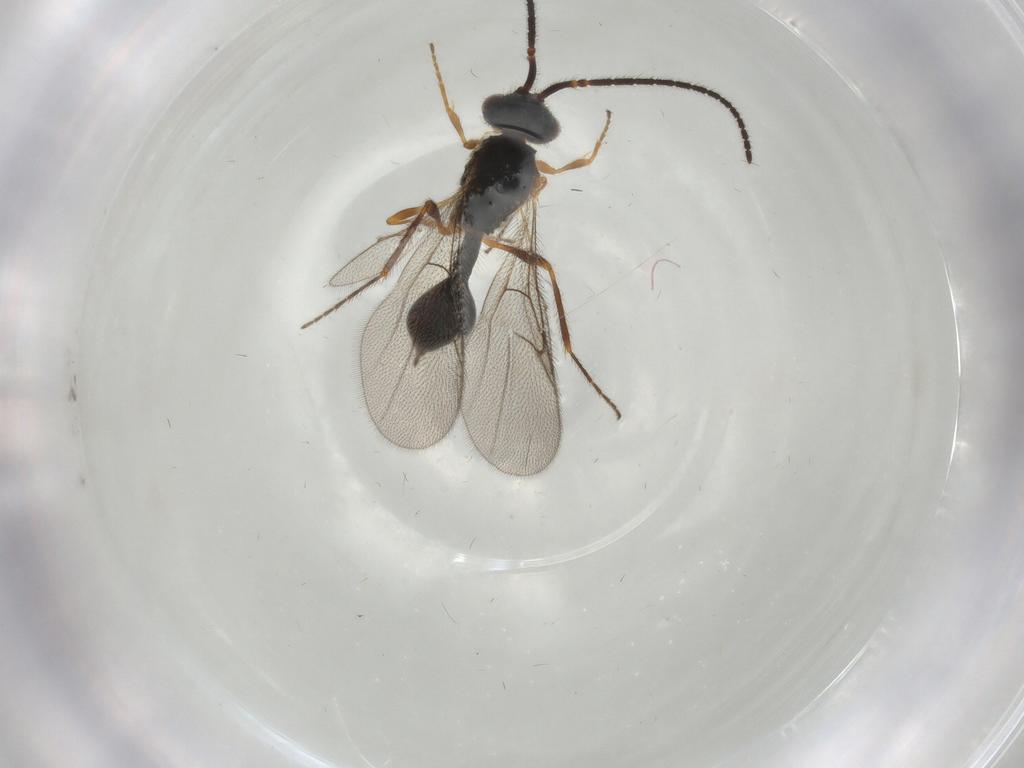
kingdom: Animalia
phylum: Arthropoda
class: Insecta
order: Hymenoptera
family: Diapriidae
